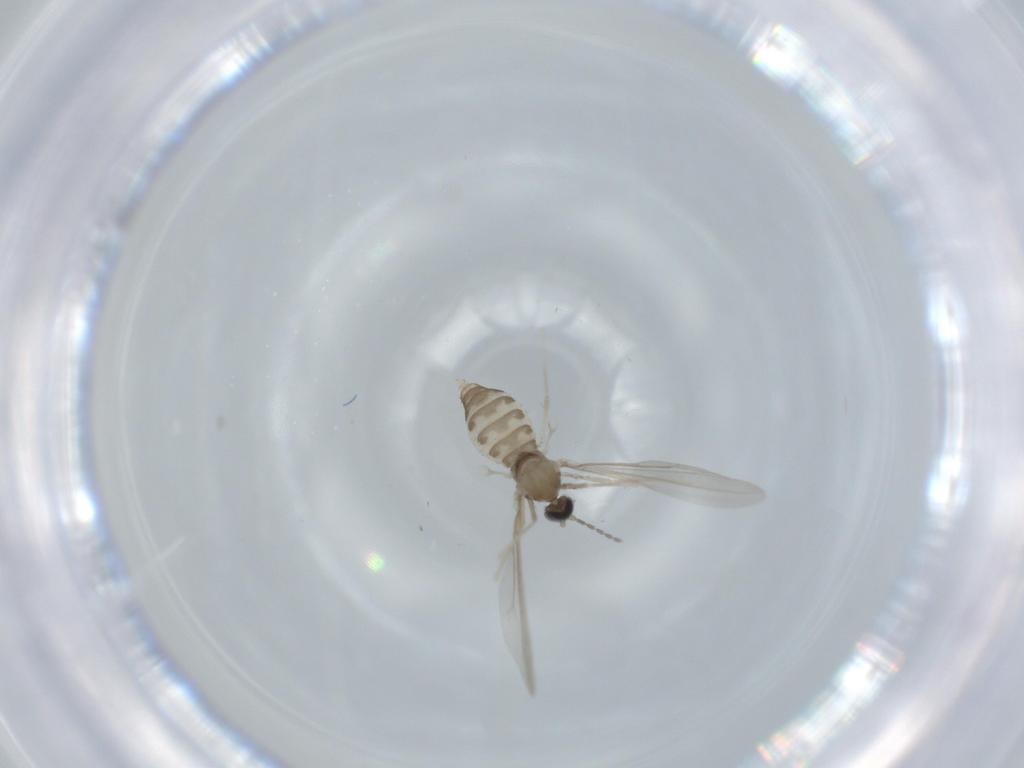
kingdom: Animalia
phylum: Arthropoda
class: Insecta
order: Diptera
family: Cecidomyiidae
